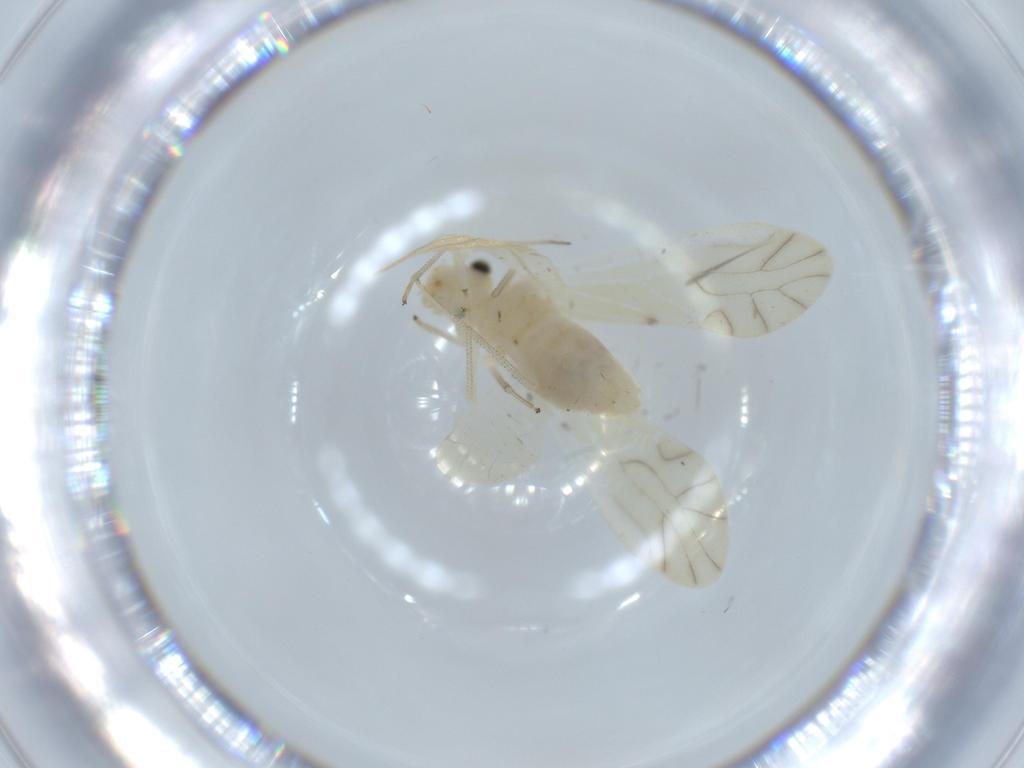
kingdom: Animalia
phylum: Arthropoda
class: Insecta
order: Psocodea
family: Caeciliusidae
